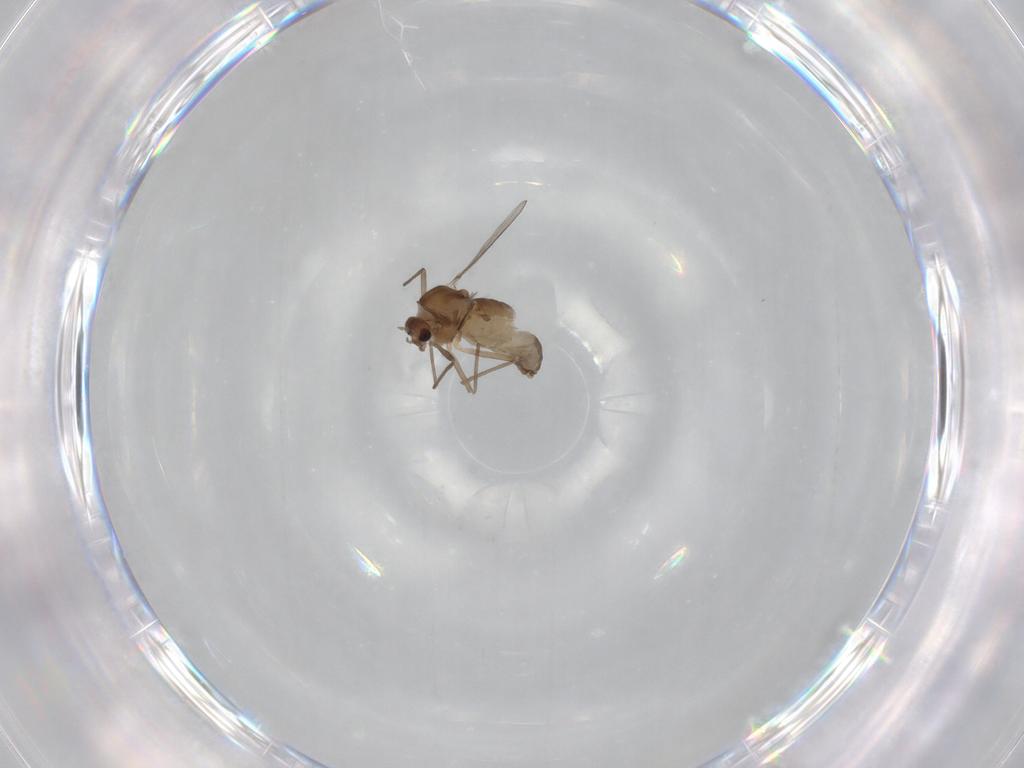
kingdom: Animalia
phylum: Arthropoda
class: Insecta
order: Diptera
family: Chironomidae
